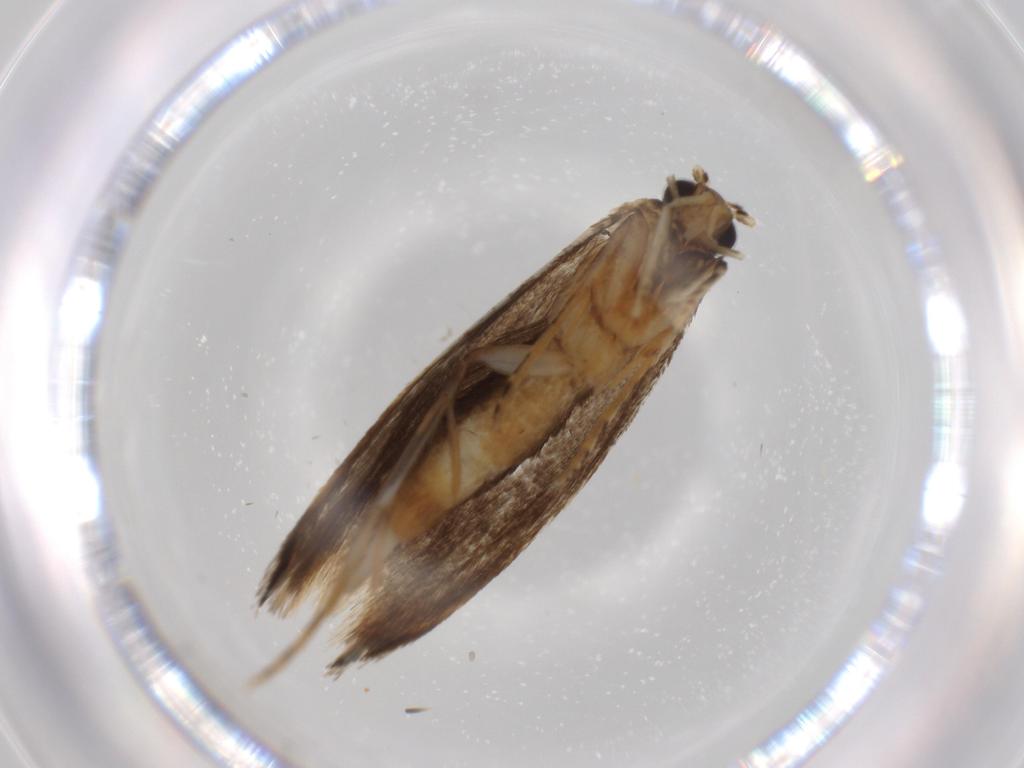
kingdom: Animalia
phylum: Arthropoda
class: Insecta
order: Lepidoptera
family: Tineidae
